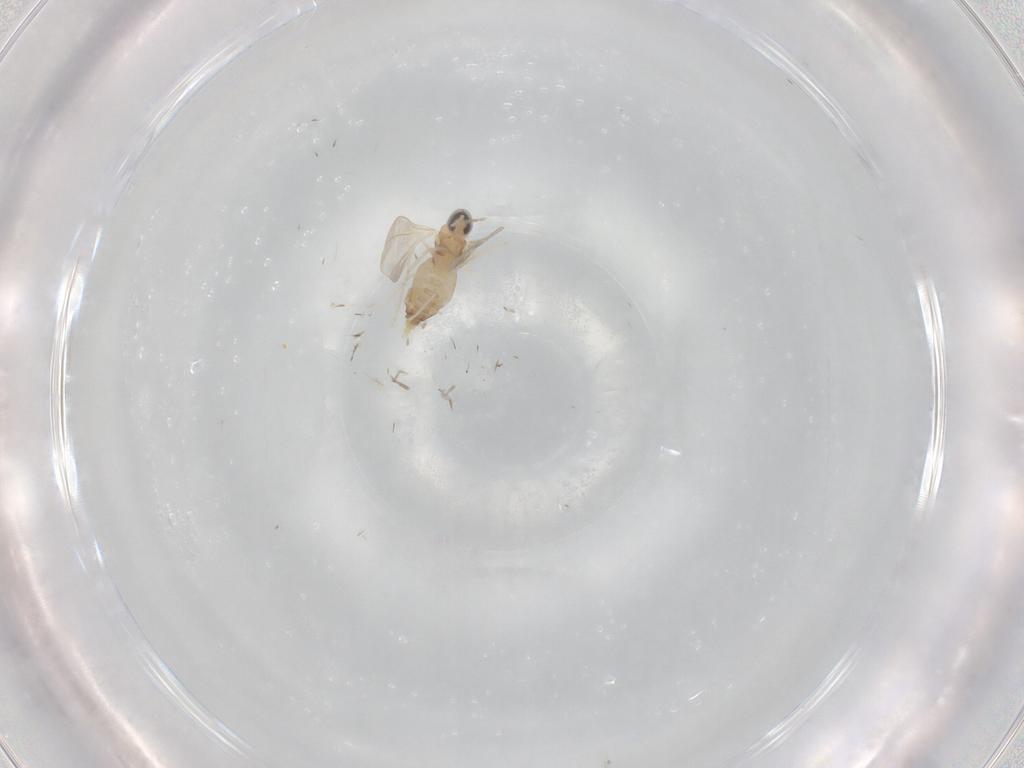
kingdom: Animalia
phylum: Arthropoda
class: Insecta
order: Diptera
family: Cecidomyiidae
